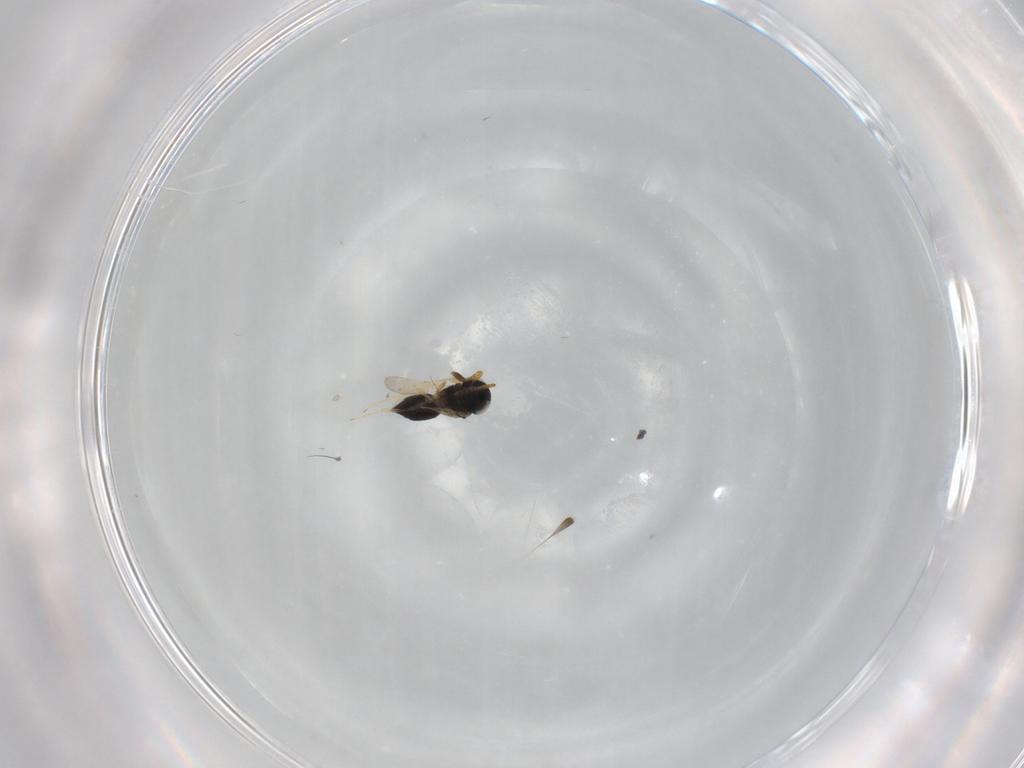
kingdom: Animalia
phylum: Arthropoda
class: Insecta
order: Hymenoptera
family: Scelionidae
